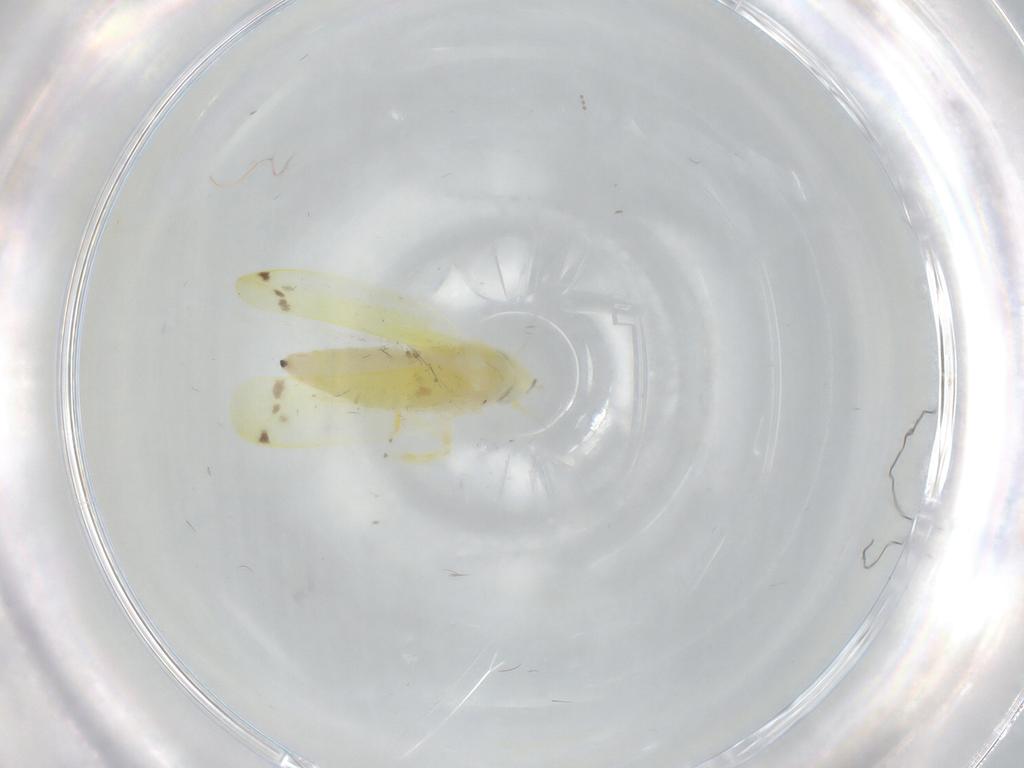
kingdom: Animalia
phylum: Arthropoda
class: Insecta
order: Hemiptera
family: Cicadellidae
